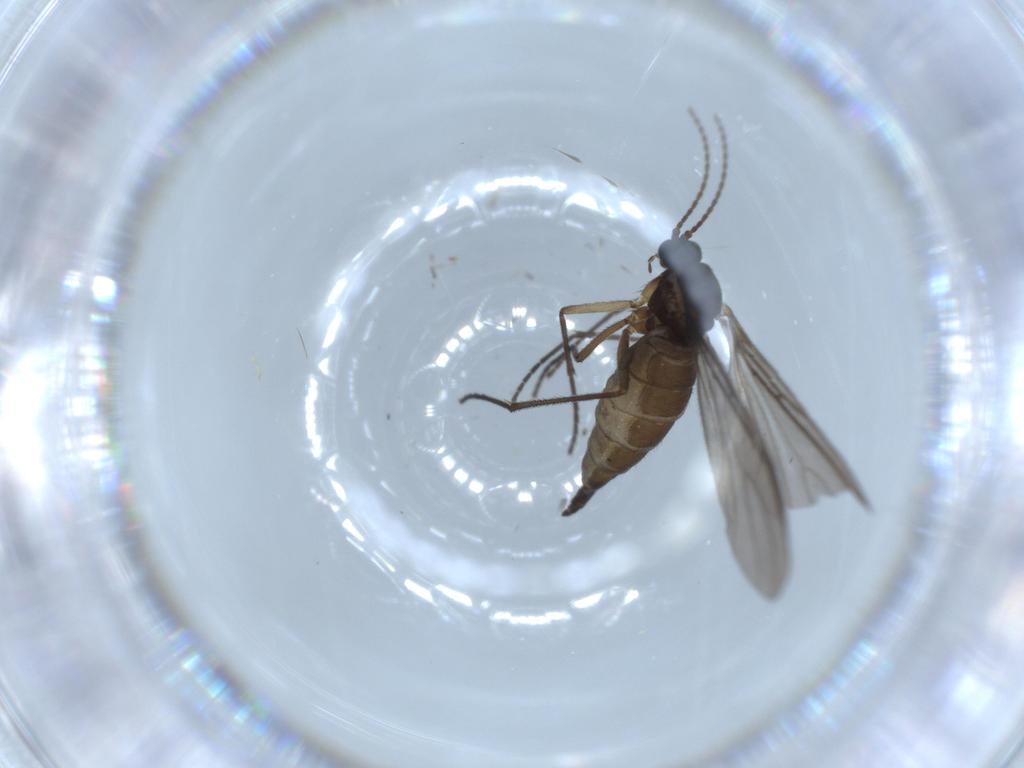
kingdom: Animalia
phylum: Arthropoda
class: Insecta
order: Diptera
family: Sciaridae
